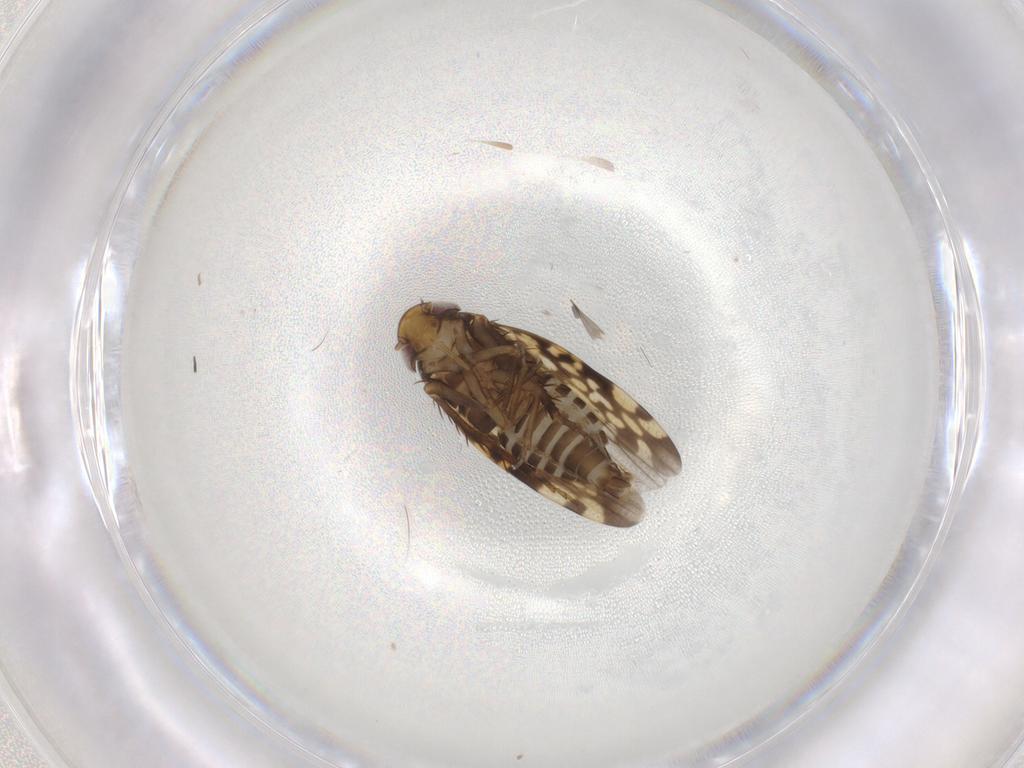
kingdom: Animalia
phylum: Arthropoda
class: Insecta
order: Hemiptera
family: Cicadellidae
